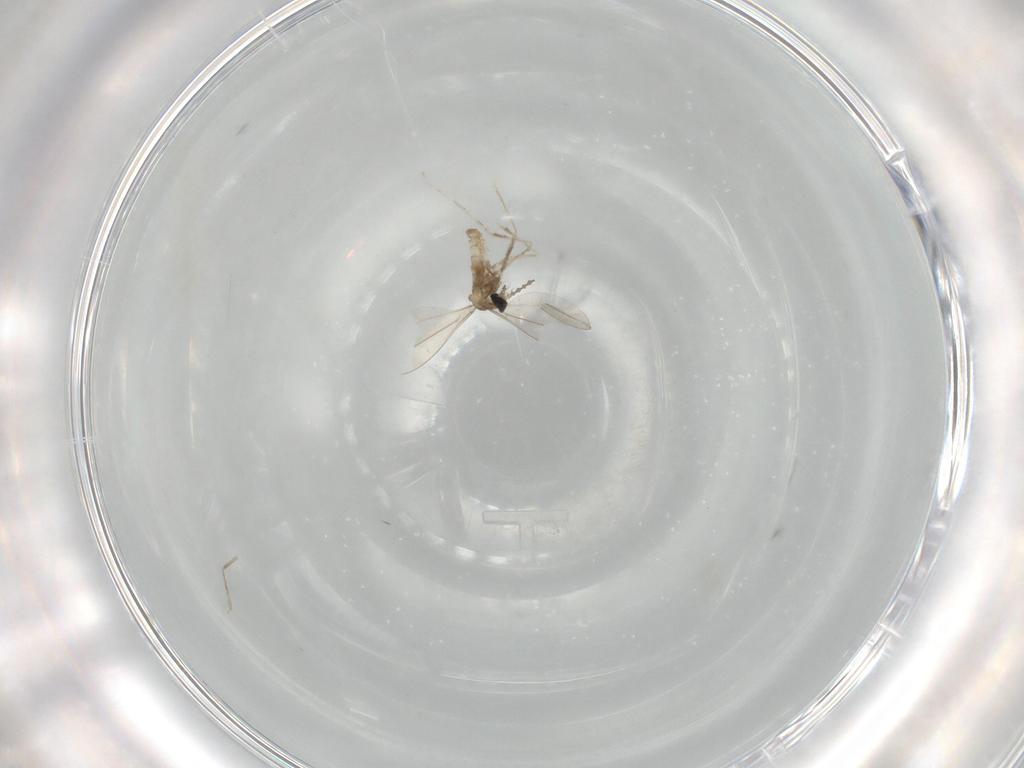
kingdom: Animalia
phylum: Arthropoda
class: Insecta
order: Diptera
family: Cecidomyiidae
